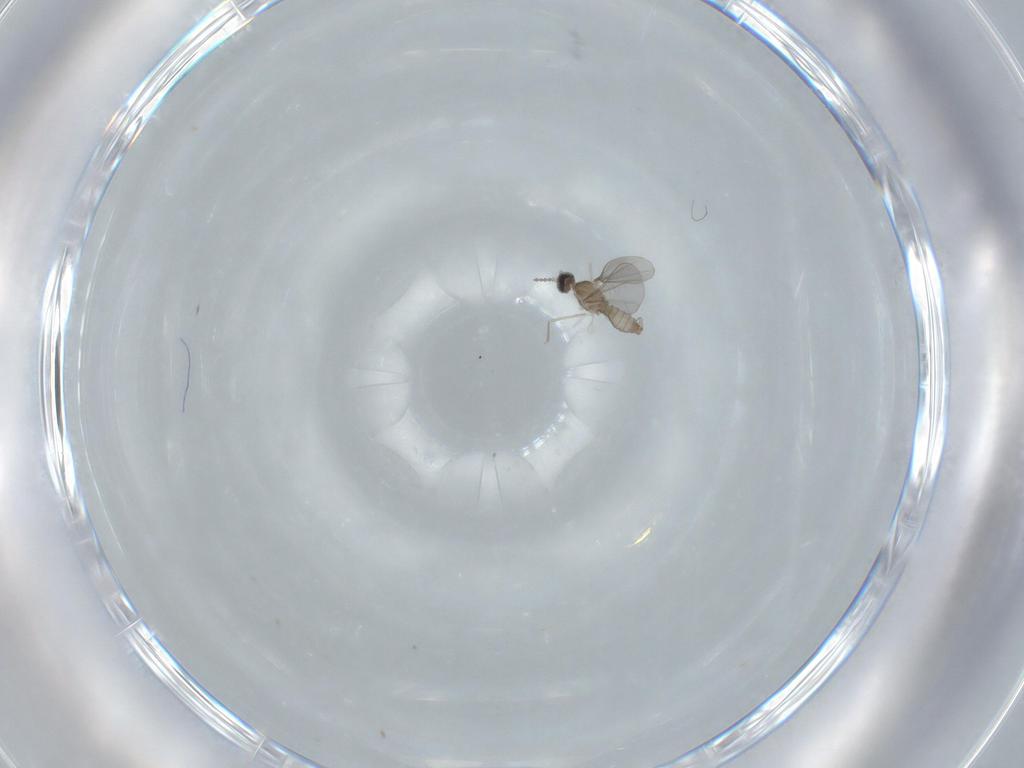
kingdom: Animalia
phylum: Arthropoda
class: Insecta
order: Diptera
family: Cecidomyiidae
